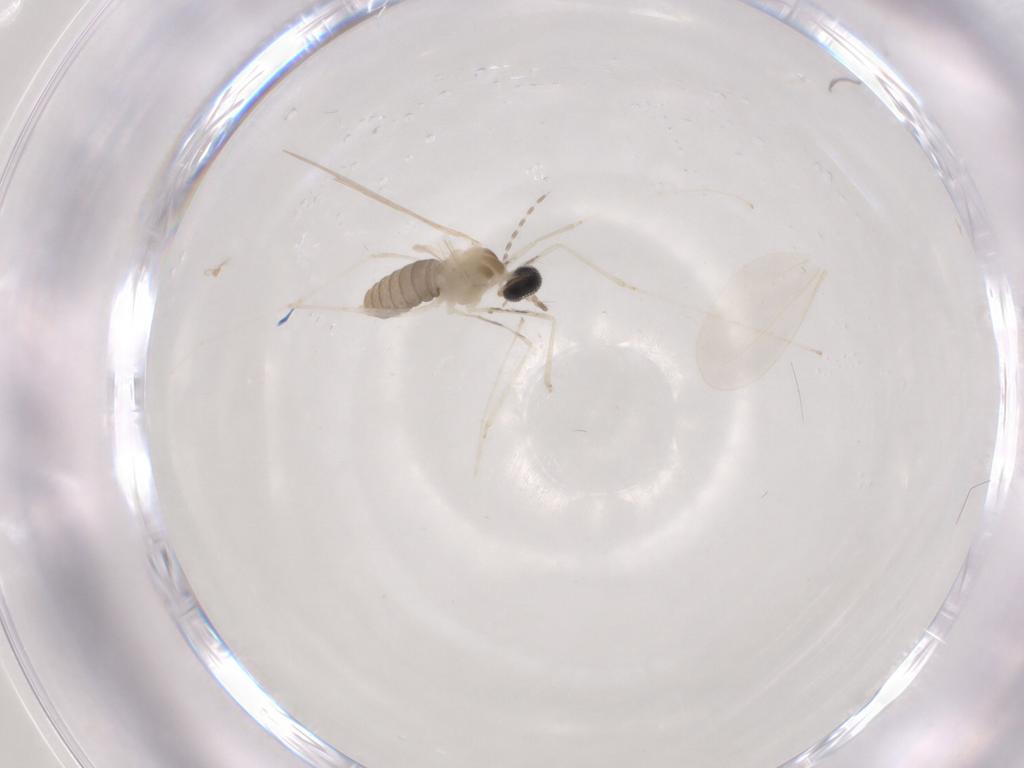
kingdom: Animalia
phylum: Arthropoda
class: Insecta
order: Diptera
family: Cecidomyiidae
